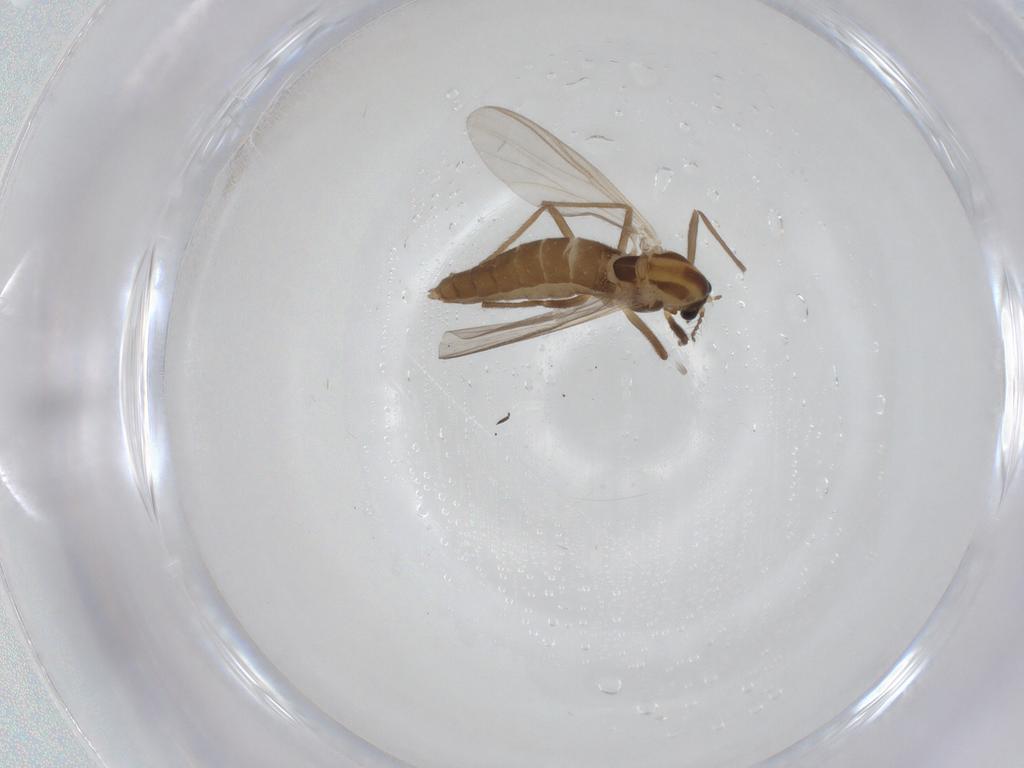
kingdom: Animalia
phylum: Arthropoda
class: Insecta
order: Diptera
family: Chironomidae
